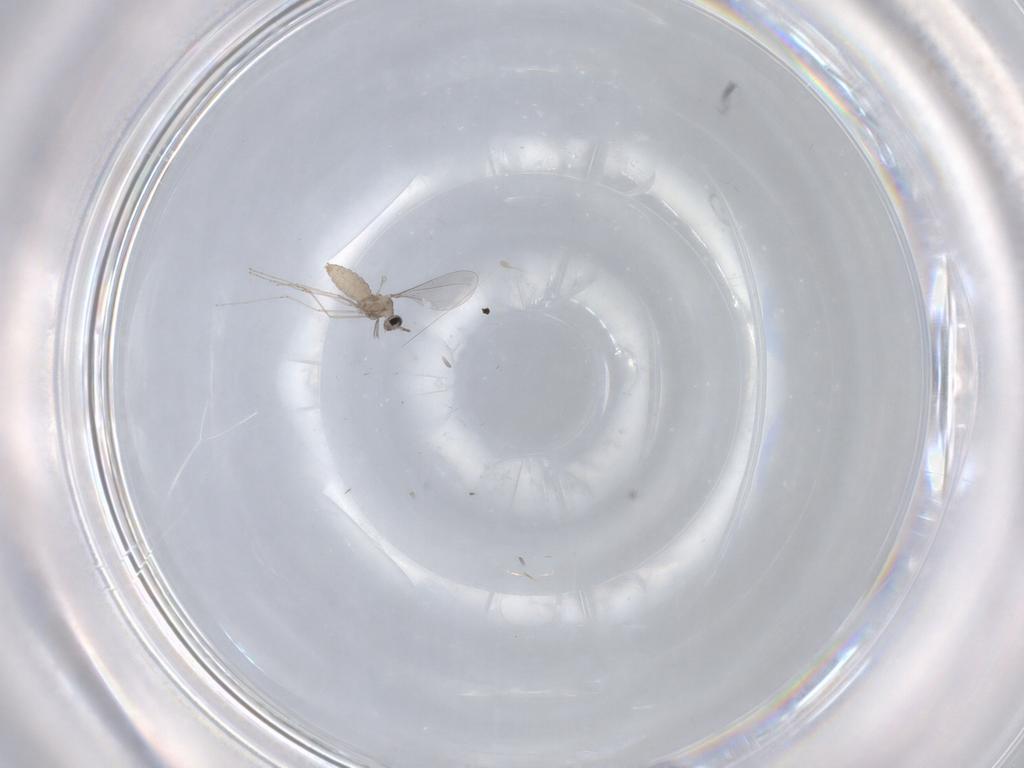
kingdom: Animalia
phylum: Arthropoda
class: Insecta
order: Diptera
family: Cecidomyiidae
